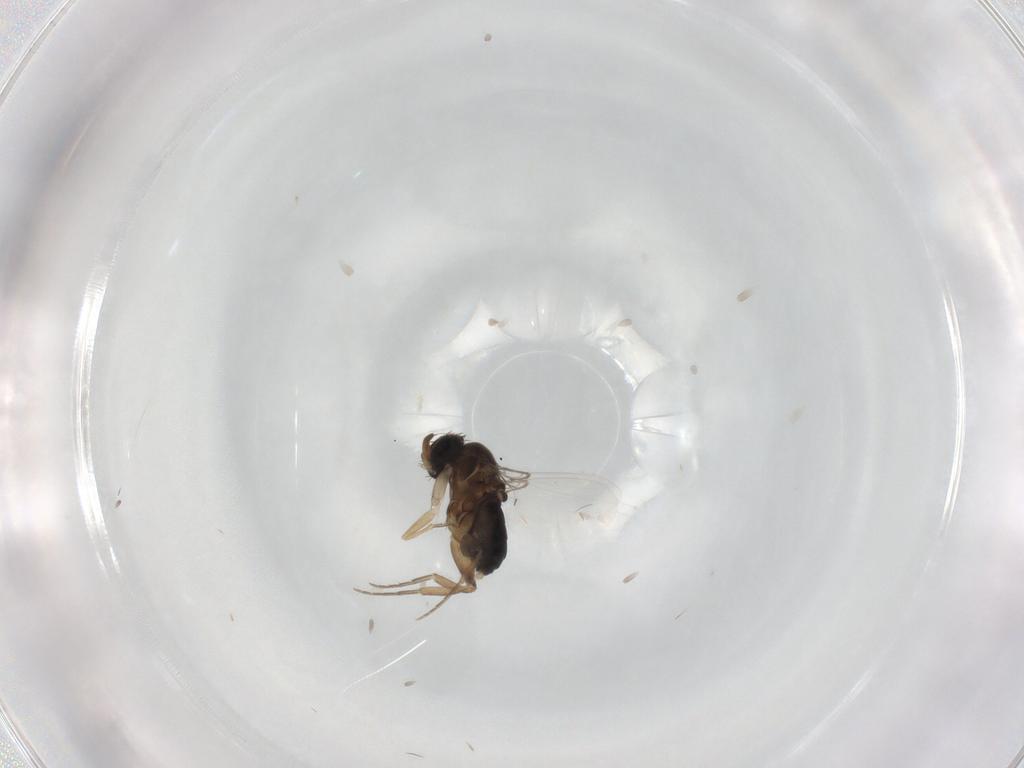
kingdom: Animalia
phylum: Arthropoda
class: Insecta
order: Diptera
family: Phoridae
